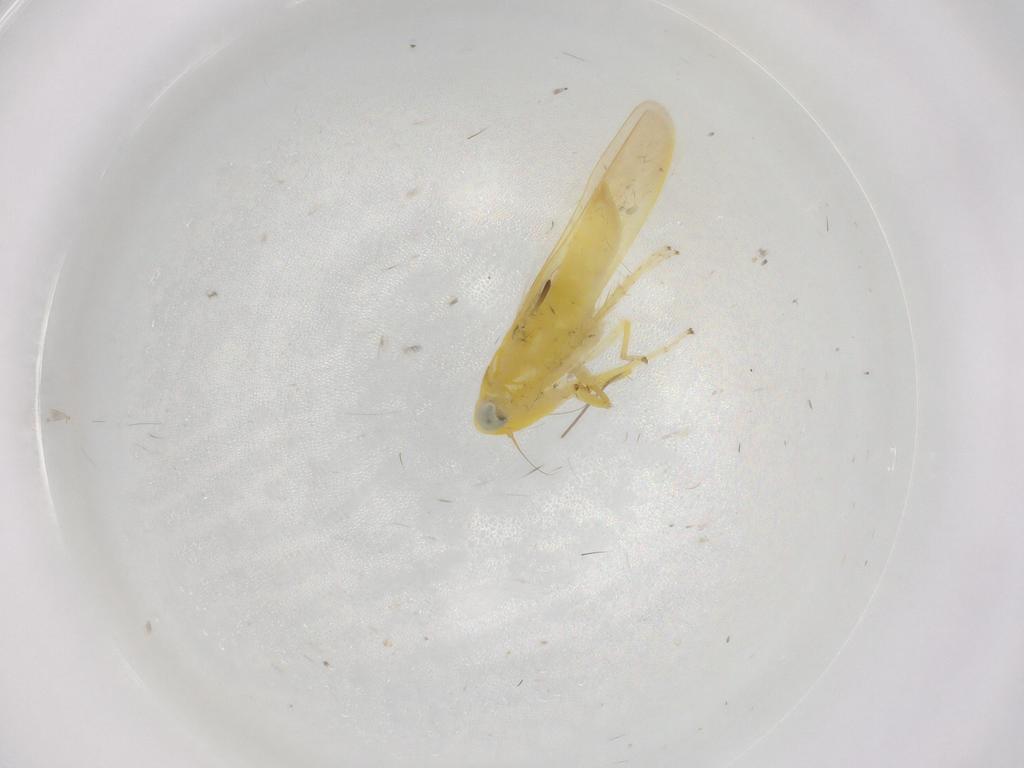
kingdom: Animalia
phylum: Arthropoda
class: Insecta
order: Hemiptera
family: Cicadellidae
